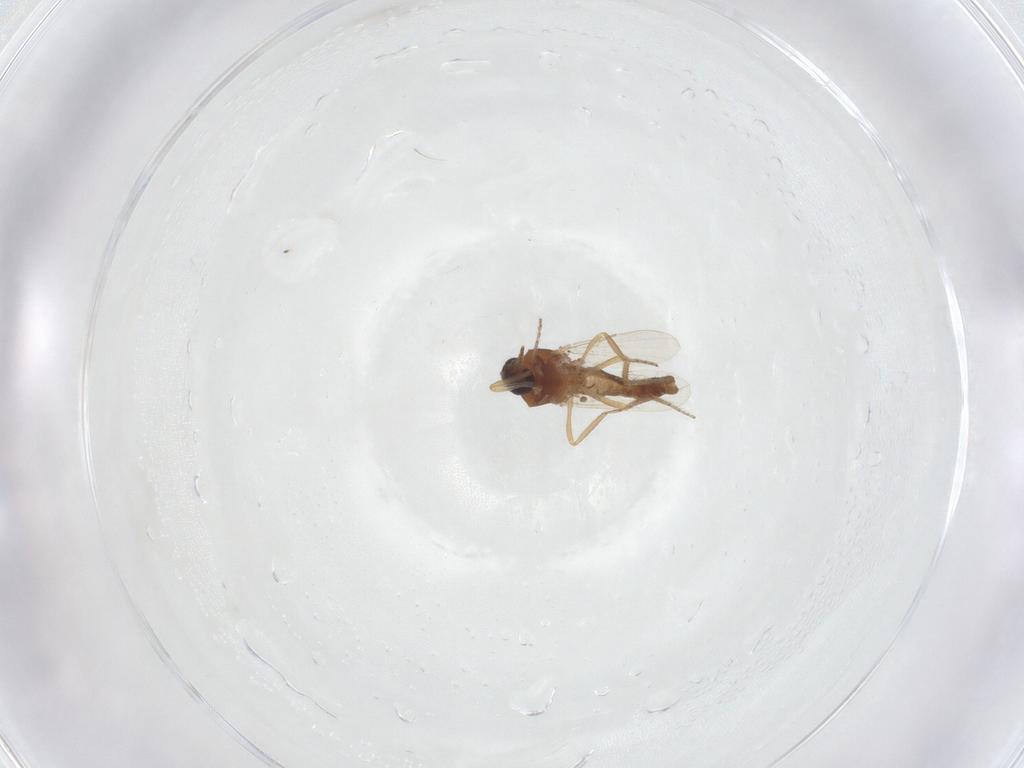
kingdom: Animalia
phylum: Arthropoda
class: Insecta
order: Diptera
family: Ceratopogonidae
